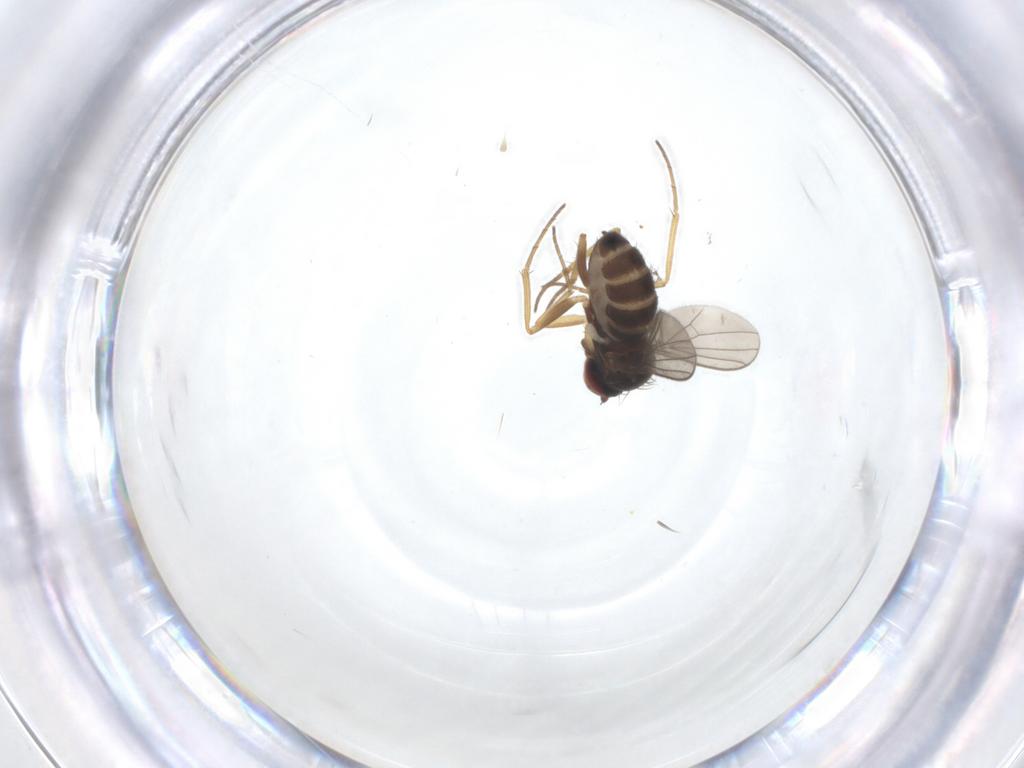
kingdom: Animalia
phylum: Arthropoda
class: Insecta
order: Diptera
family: Dolichopodidae
